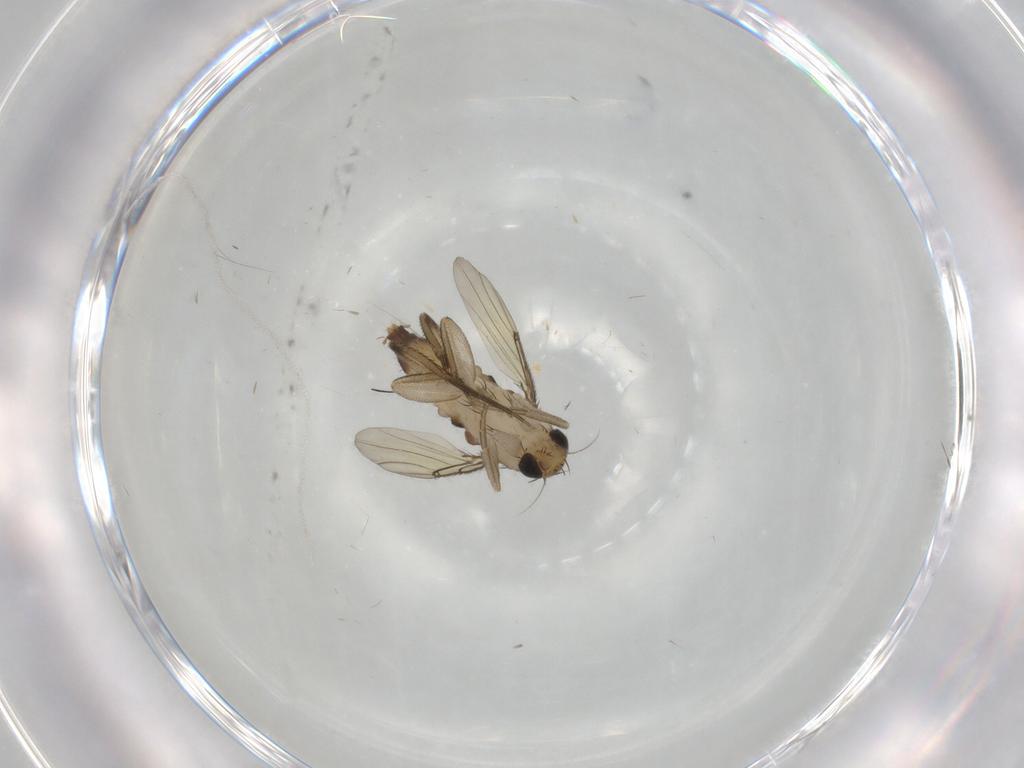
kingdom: Animalia
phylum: Arthropoda
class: Insecta
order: Diptera
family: Phoridae
